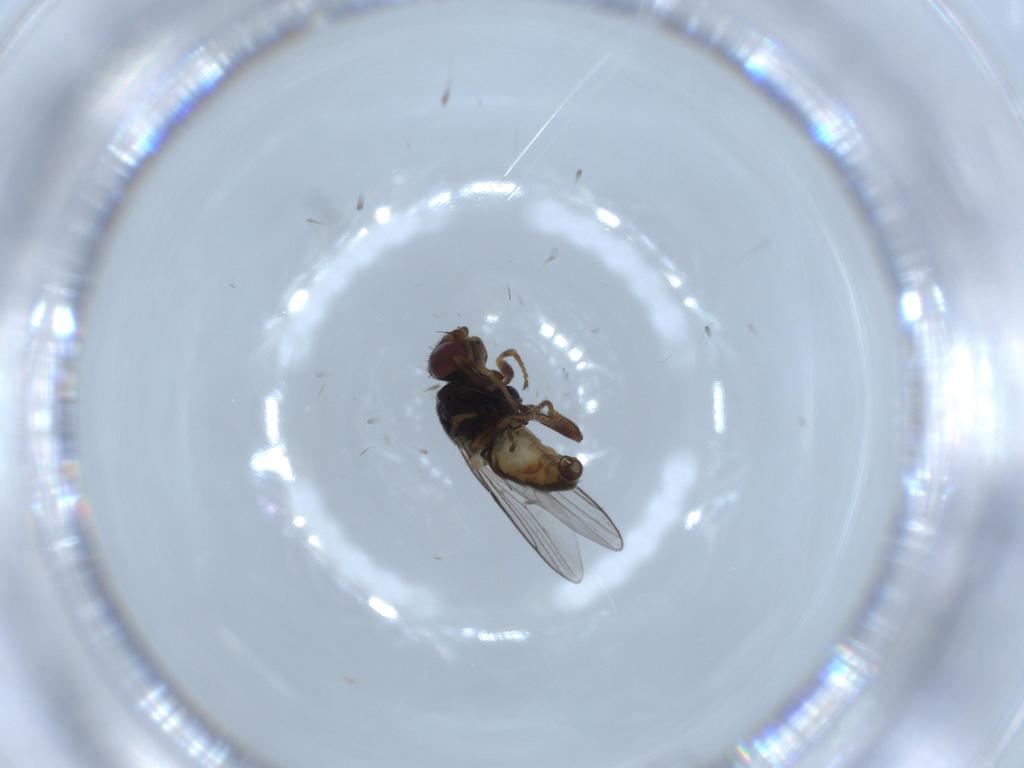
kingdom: Animalia
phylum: Arthropoda
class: Insecta
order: Diptera
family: Chloropidae
